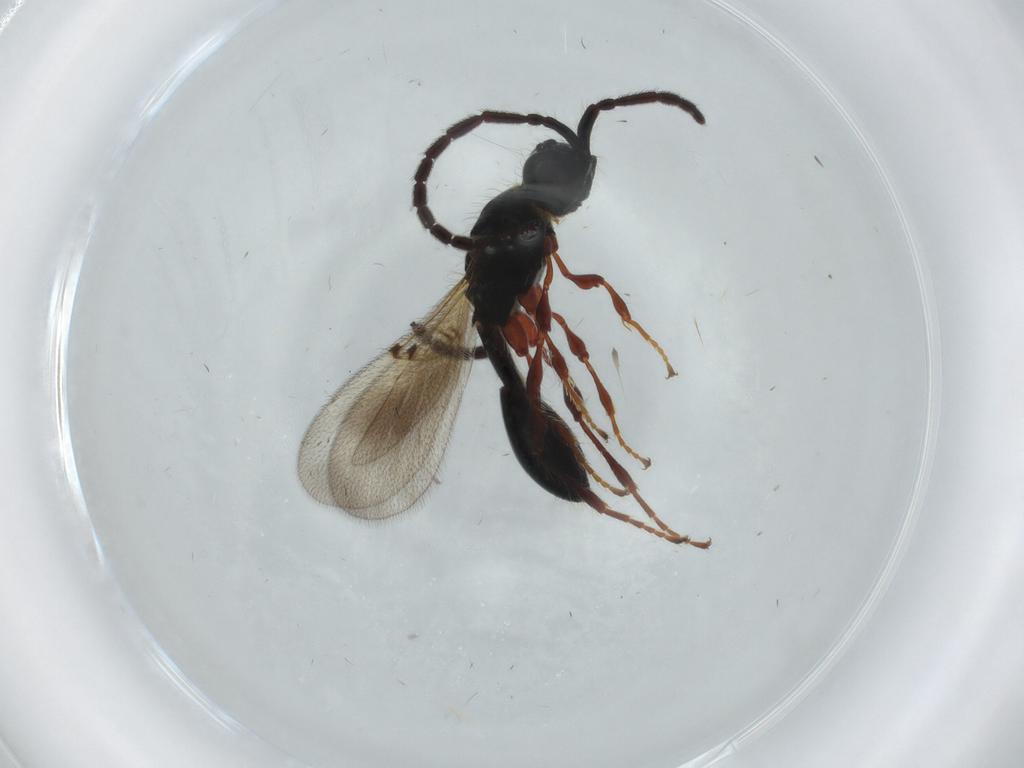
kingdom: Animalia
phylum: Arthropoda
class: Insecta
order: Hymenoptera
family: Diapriidae
